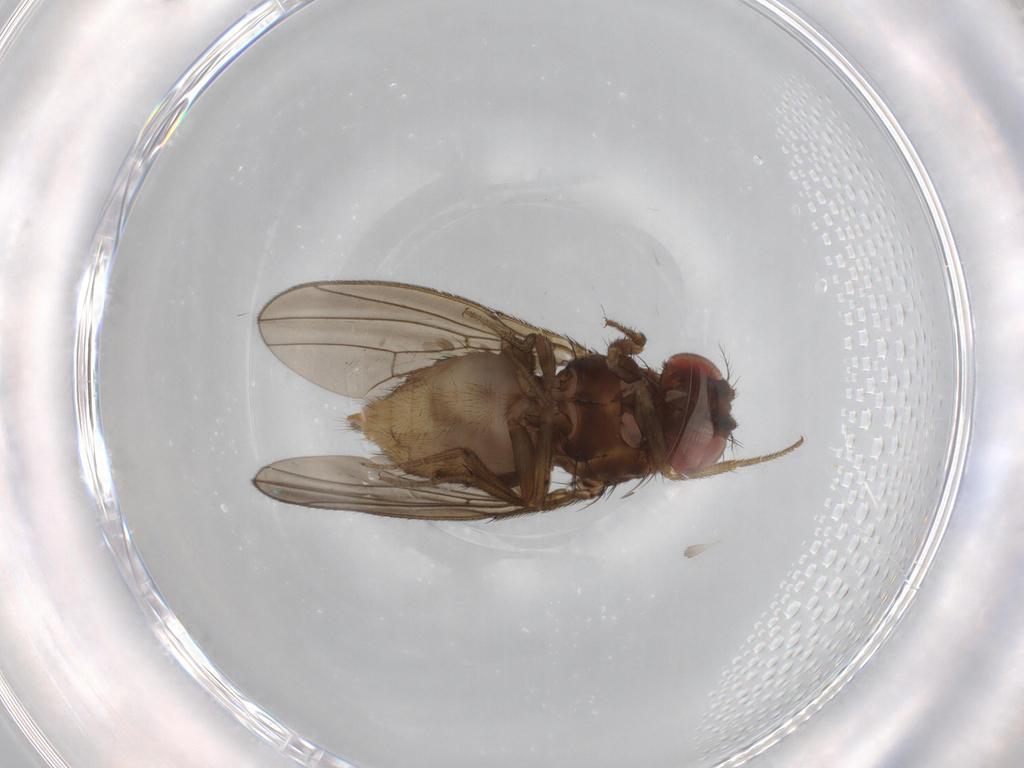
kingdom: Animalia
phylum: Arthropoda
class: Insecta
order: Diptera
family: Drosophilidae
